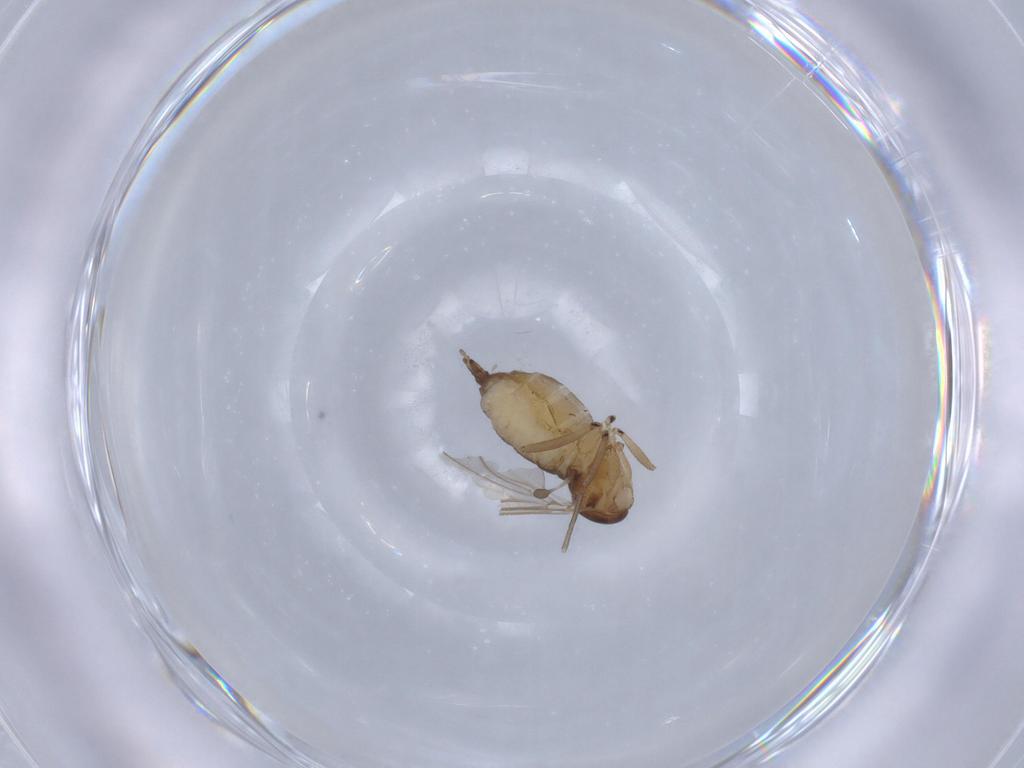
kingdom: Animalia
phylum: Arthropoda
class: Insecta
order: Diptera
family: Sciaridae
